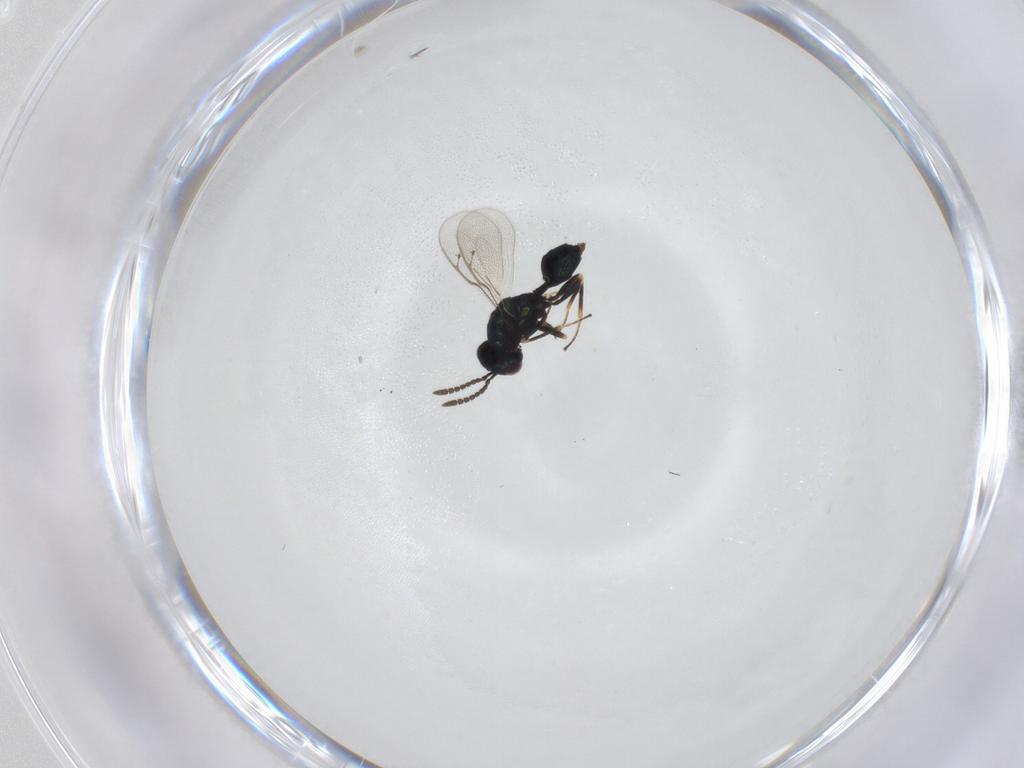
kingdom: Animalia
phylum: Arthropoda
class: Insecta
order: Hymenoptera
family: Pteromalidae
